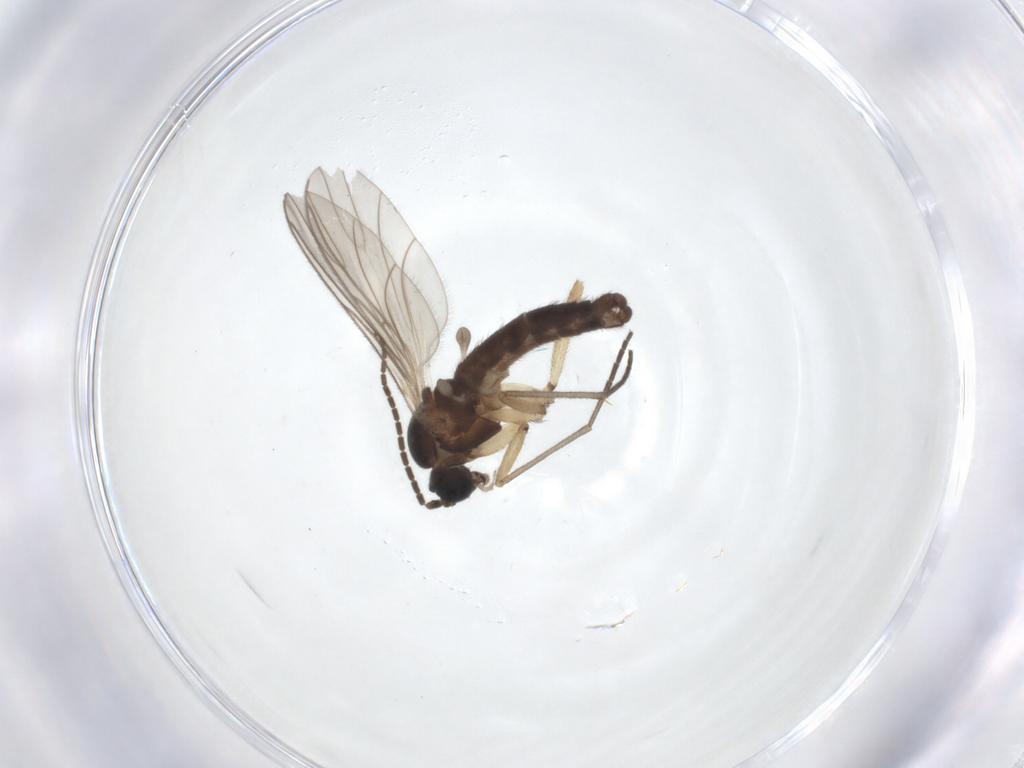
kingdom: Animalia
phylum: Arthropoda
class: Insecta
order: Diptera
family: Sciaridae
